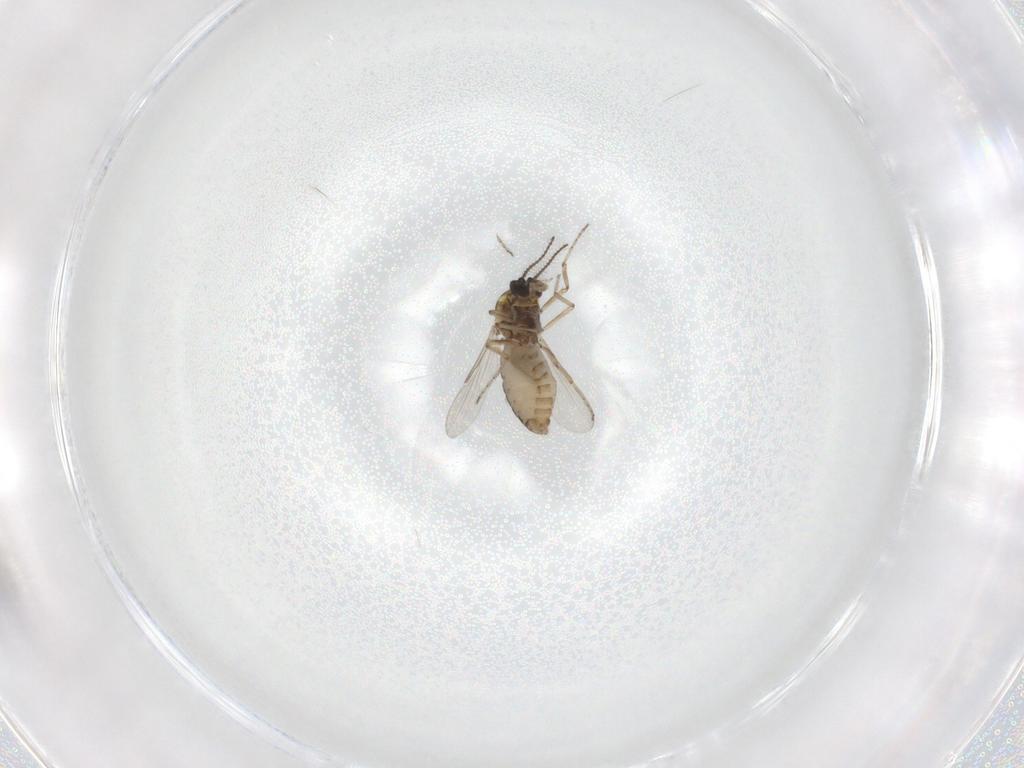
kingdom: Animalia
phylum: Arthropoda
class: Insecta
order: Diptera
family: Ceratopogonidae
